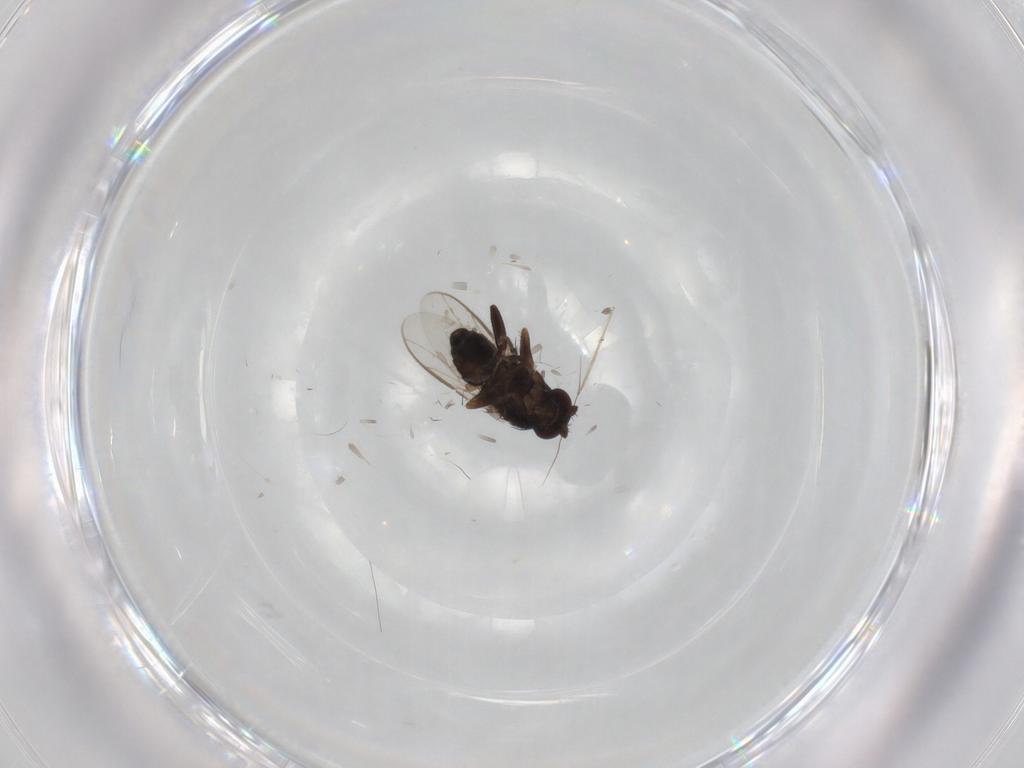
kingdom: Animalia
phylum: Arthropoda
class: Insecta
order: Diptera
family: Sphaeroceridae
